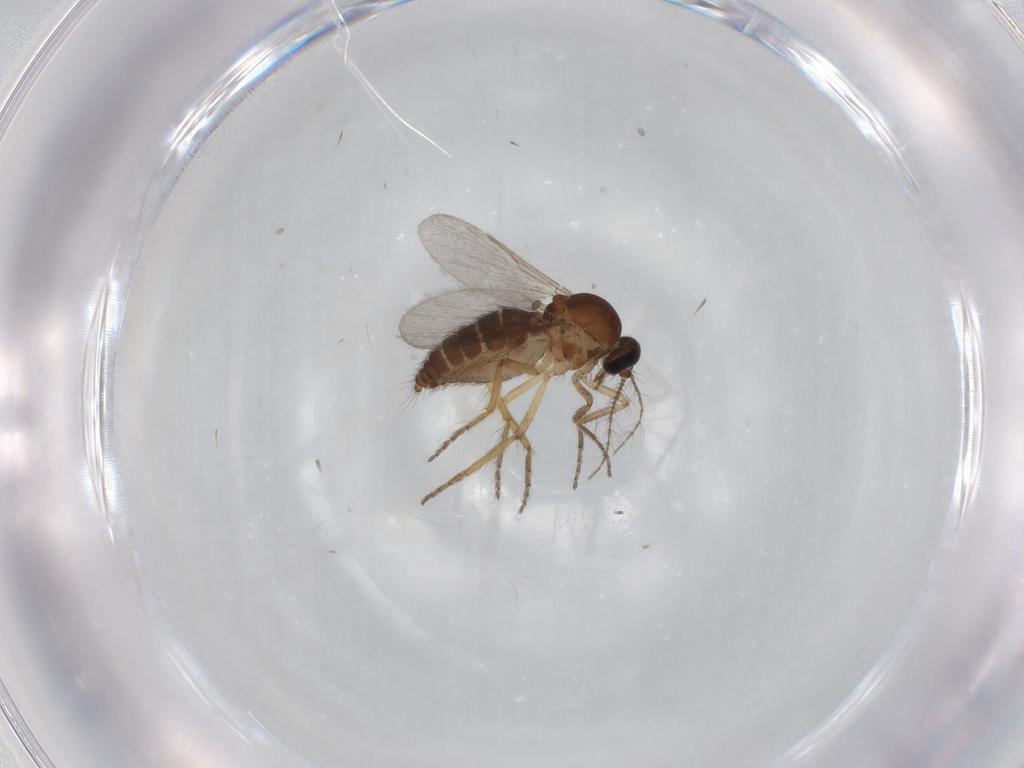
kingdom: Animalia
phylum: Arthropoda
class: Insecta
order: Diptera
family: Ceratopogonidae
